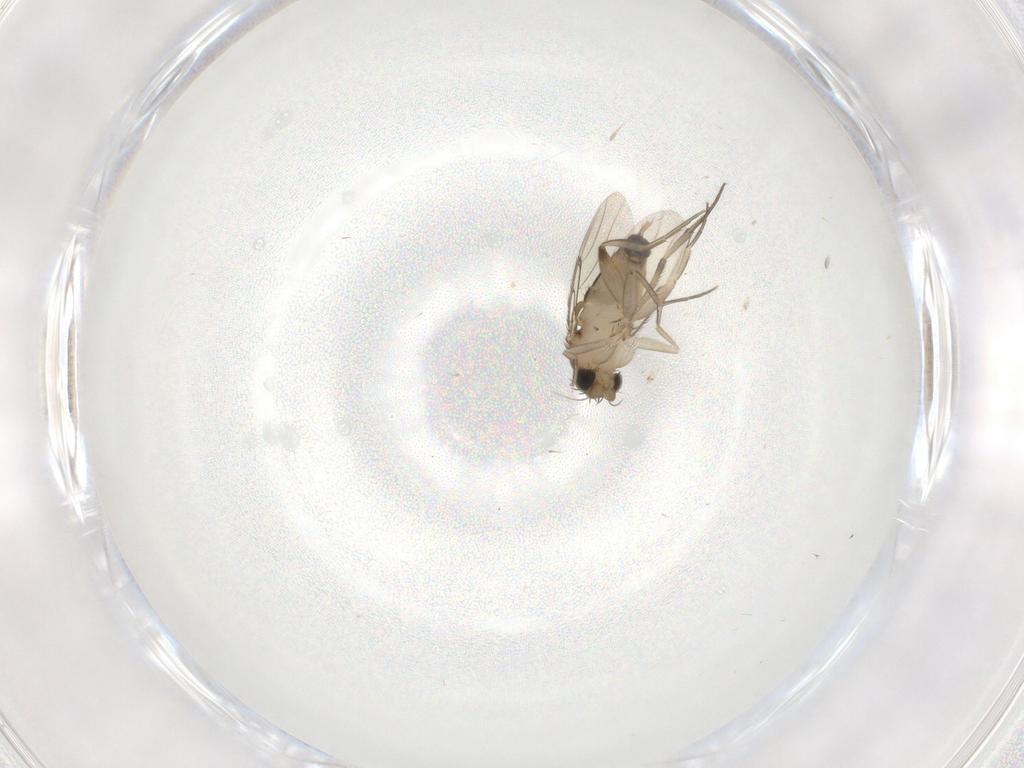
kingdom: Animalia
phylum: Arthropoda
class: Insecta
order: Diptera
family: Phoridae
